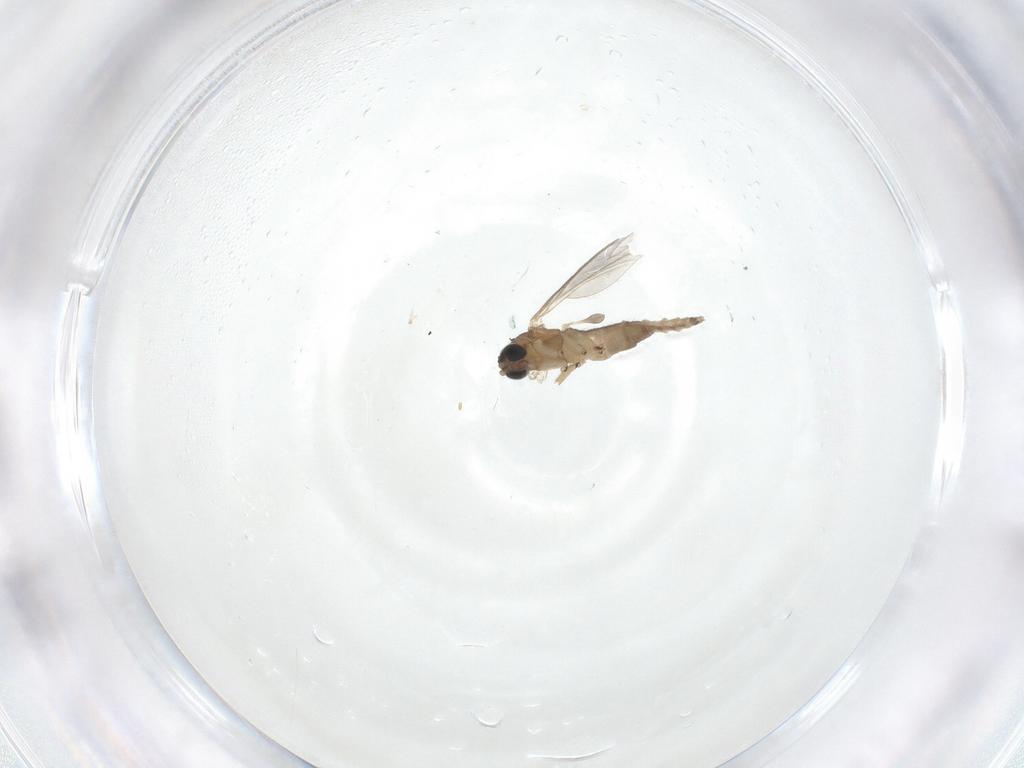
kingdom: Animalia
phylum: Arthropoda
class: Insecta
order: Diptera
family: Sciaridae
